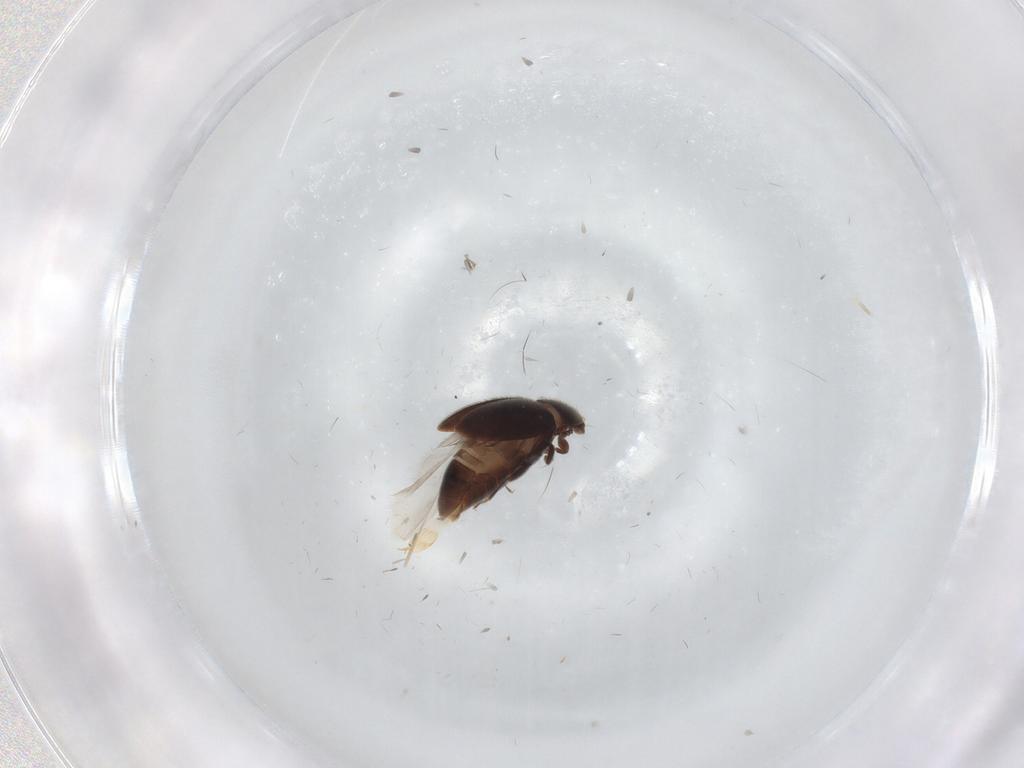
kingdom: Animalia
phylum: Arthropoda
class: Insecta
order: Coleoptera
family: Corylophidae
